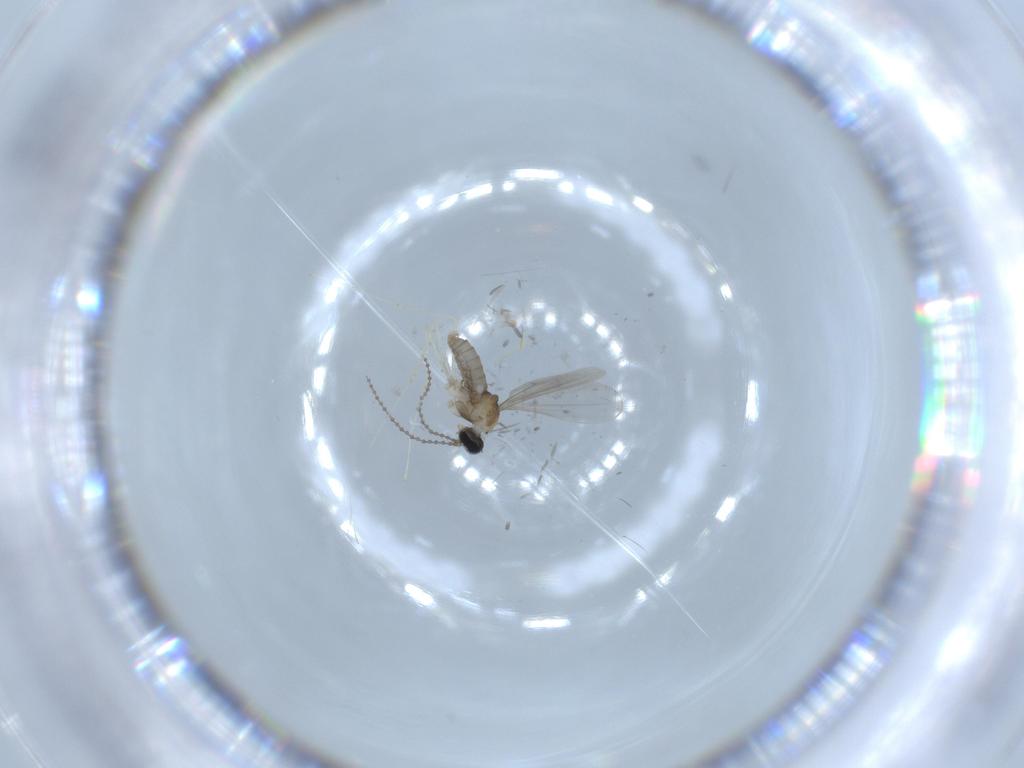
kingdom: Animalia
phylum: Arthropoda
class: Insecta
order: Diptera
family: Cecidomyiidae
